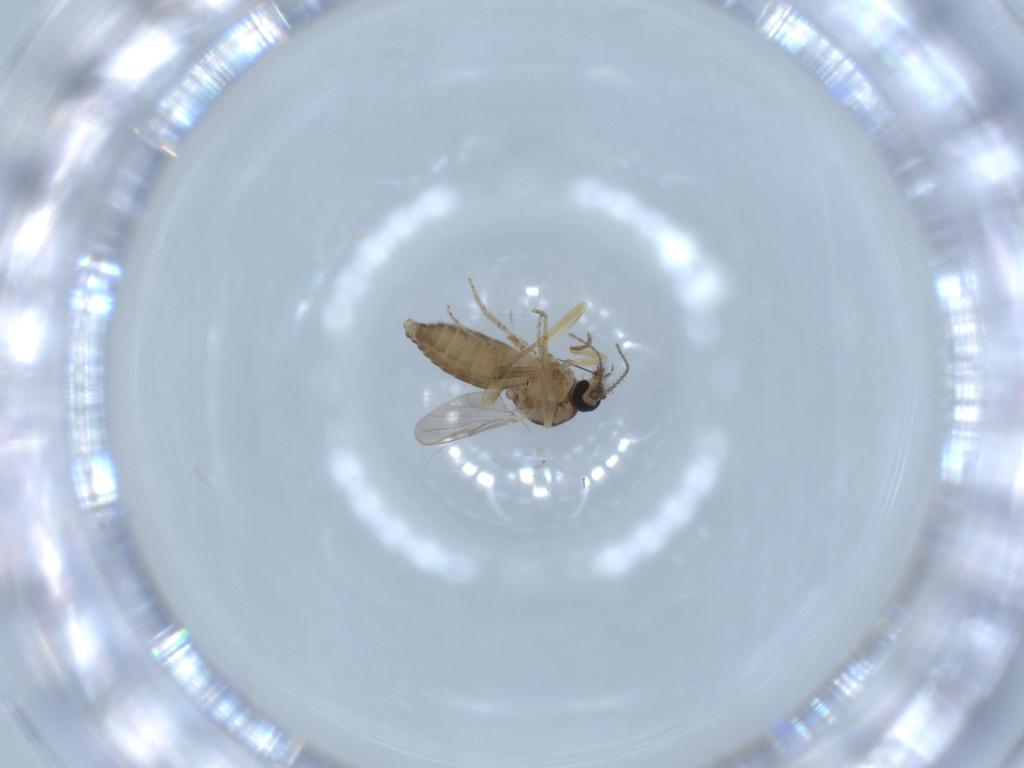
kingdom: Animalia
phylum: Arthropoda
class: Insecta
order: Diptera
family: Ceratopogonidae
